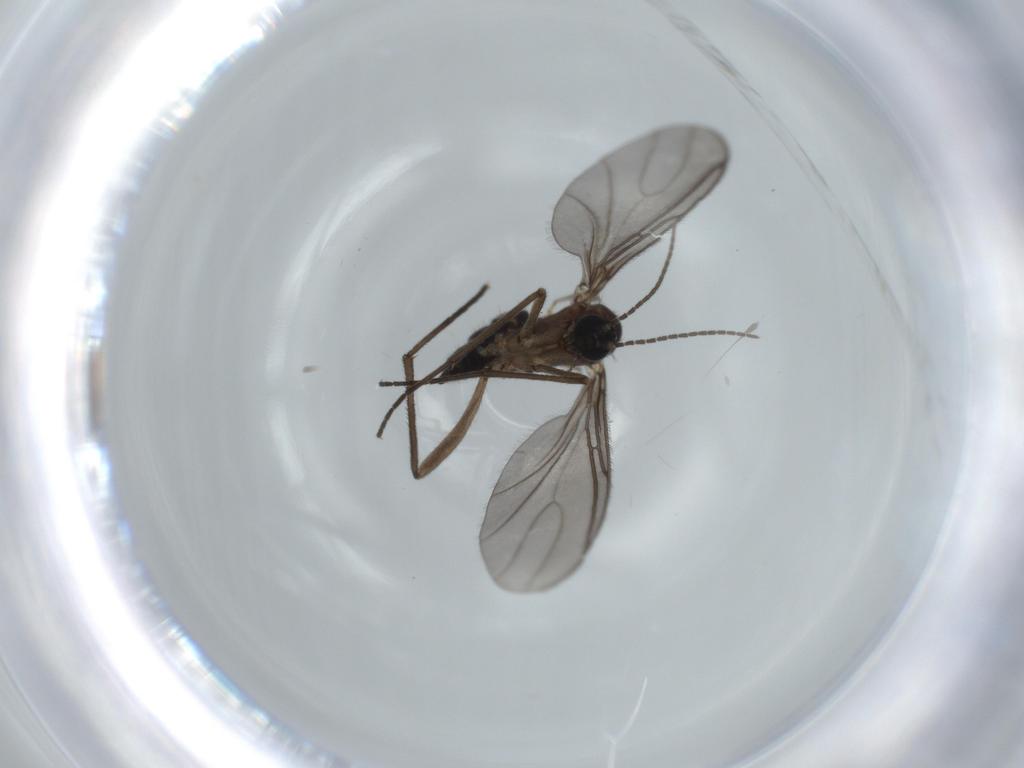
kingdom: Animalia
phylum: Arthropoda
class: Insecta
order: Diptera
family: Sciaridae
